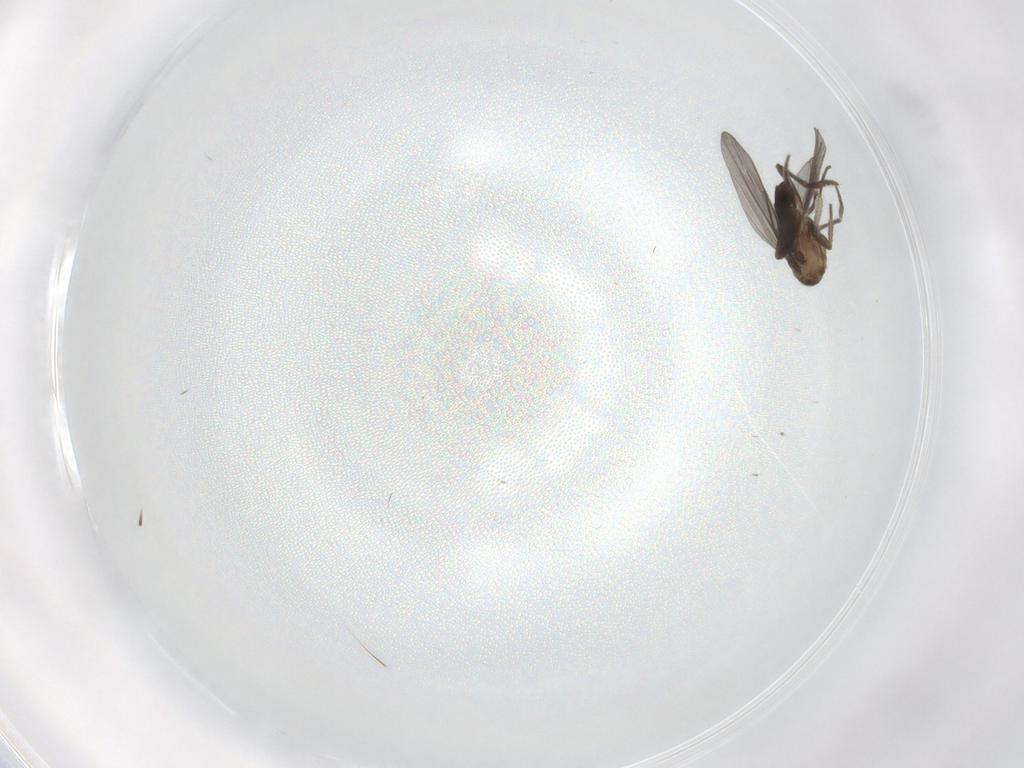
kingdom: Animalia
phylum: Arthropoda
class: Insecta
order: Diptera
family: Phoridae
